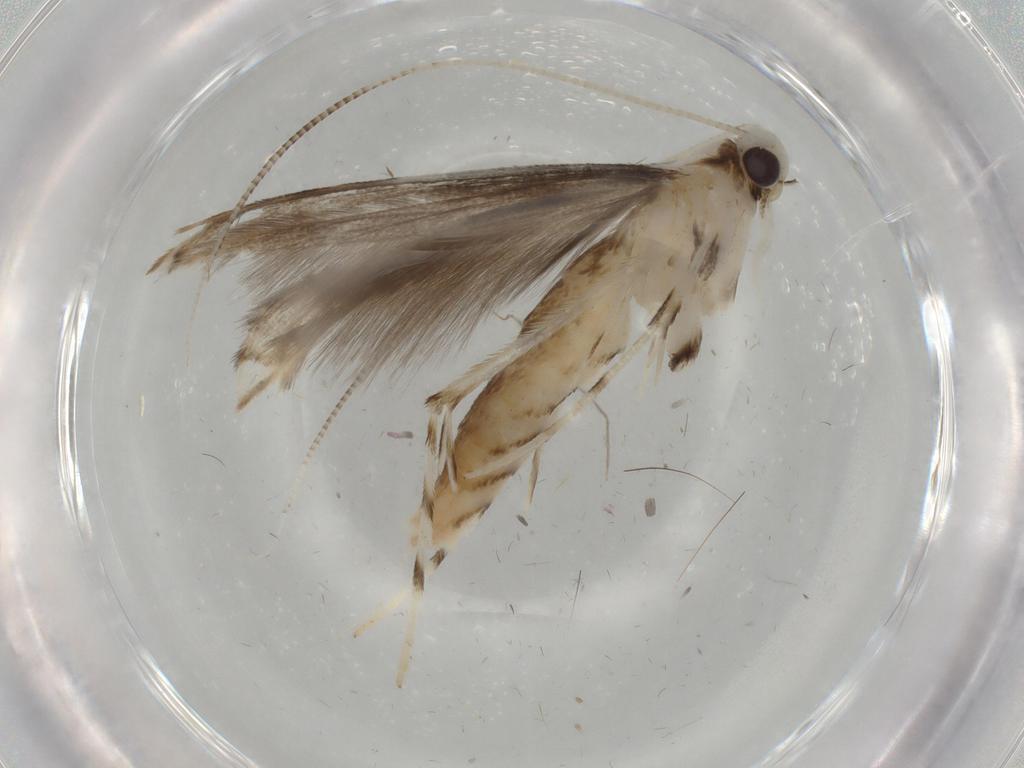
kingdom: Animalia
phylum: Arthropoda
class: Insecta
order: Lepidoptera
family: Nepticulidae
